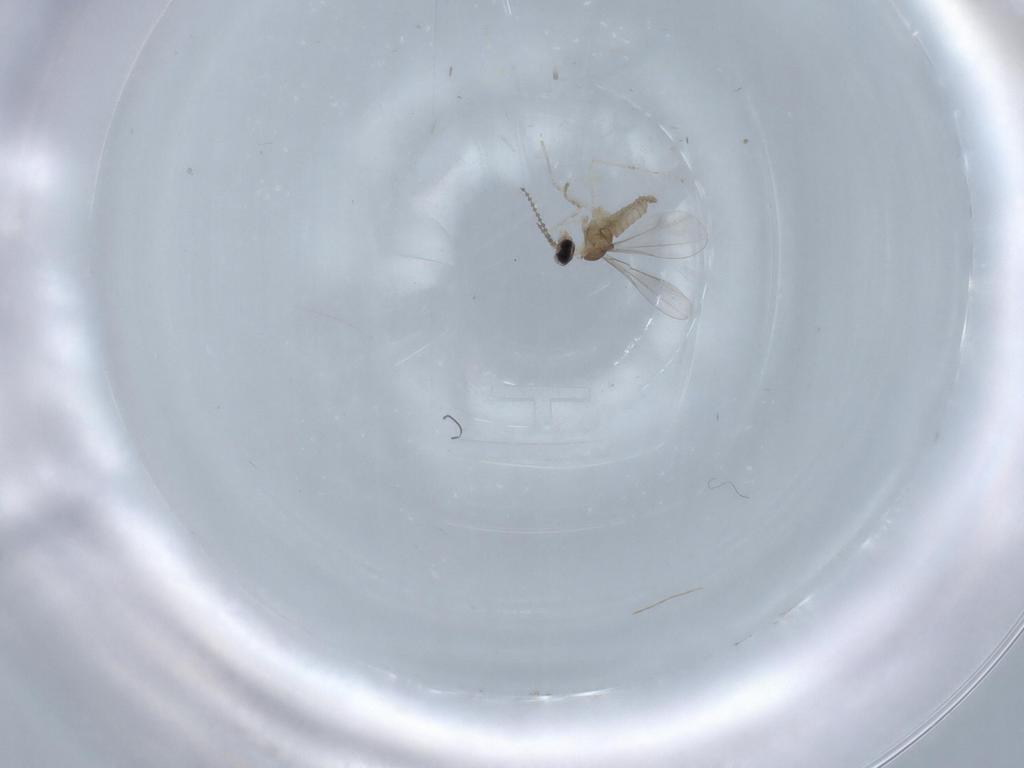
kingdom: Animalia
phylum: Arthropoda
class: Insecta
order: Diptera
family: Cecidomyiidae
